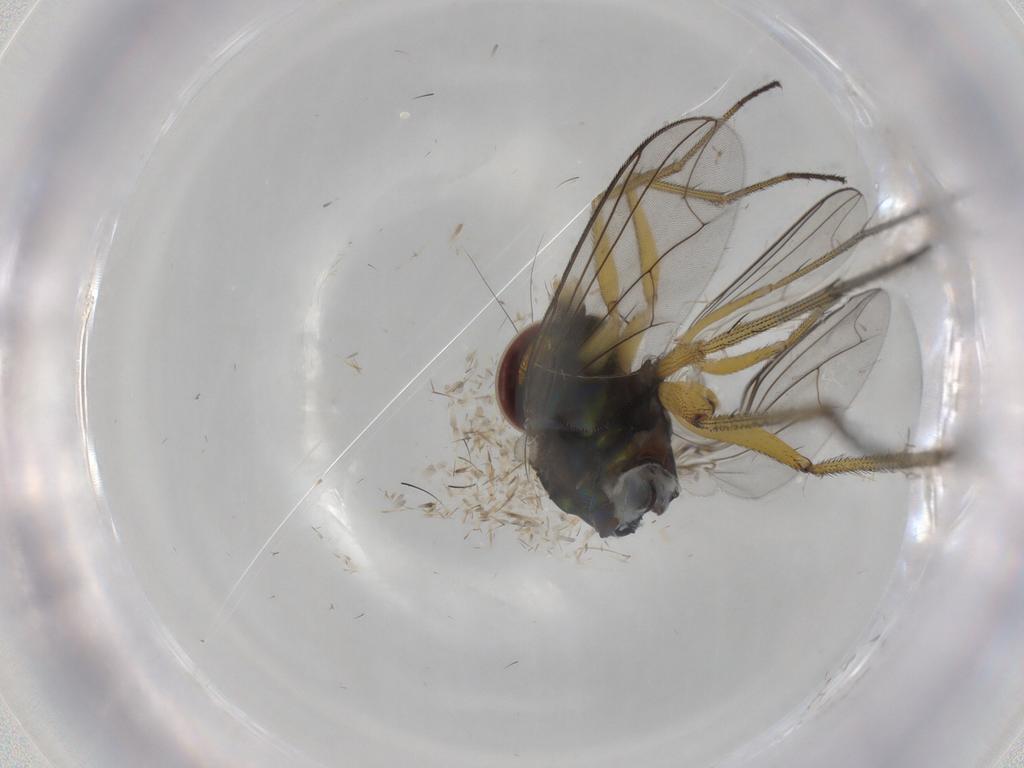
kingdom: Animalia
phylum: Arthropoda
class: Insecta
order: Diptera
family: Dolichopodidae
